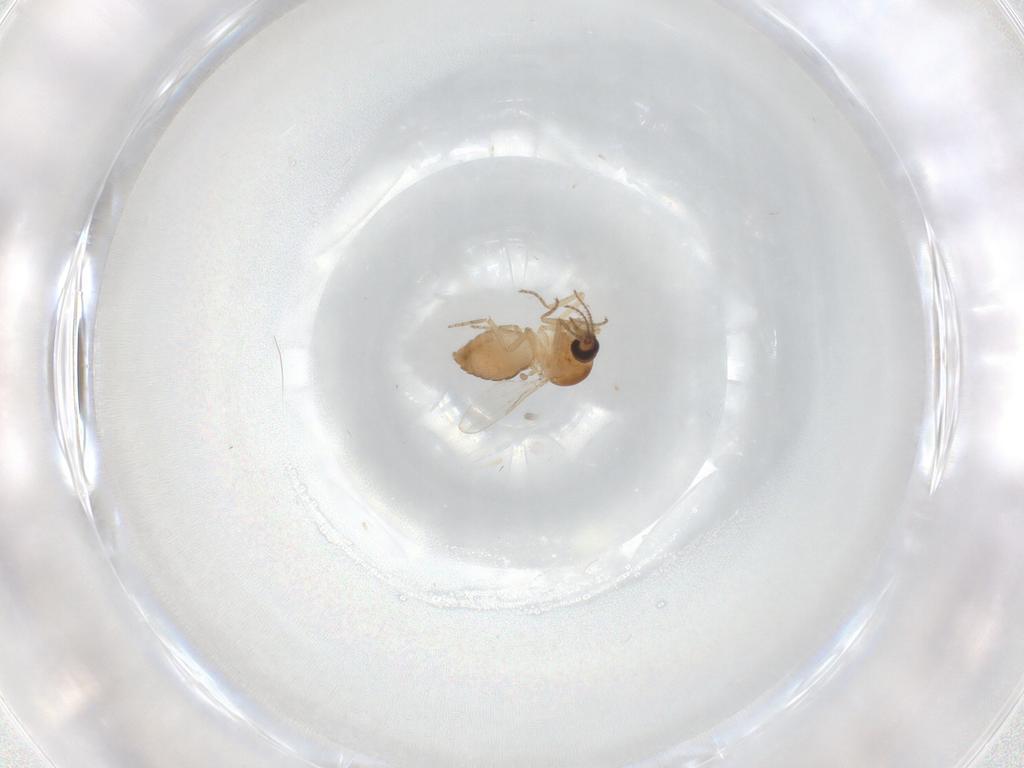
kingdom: Animalia
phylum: Arthropoda
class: Insecta
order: Diptera
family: Ceratopogonidae
